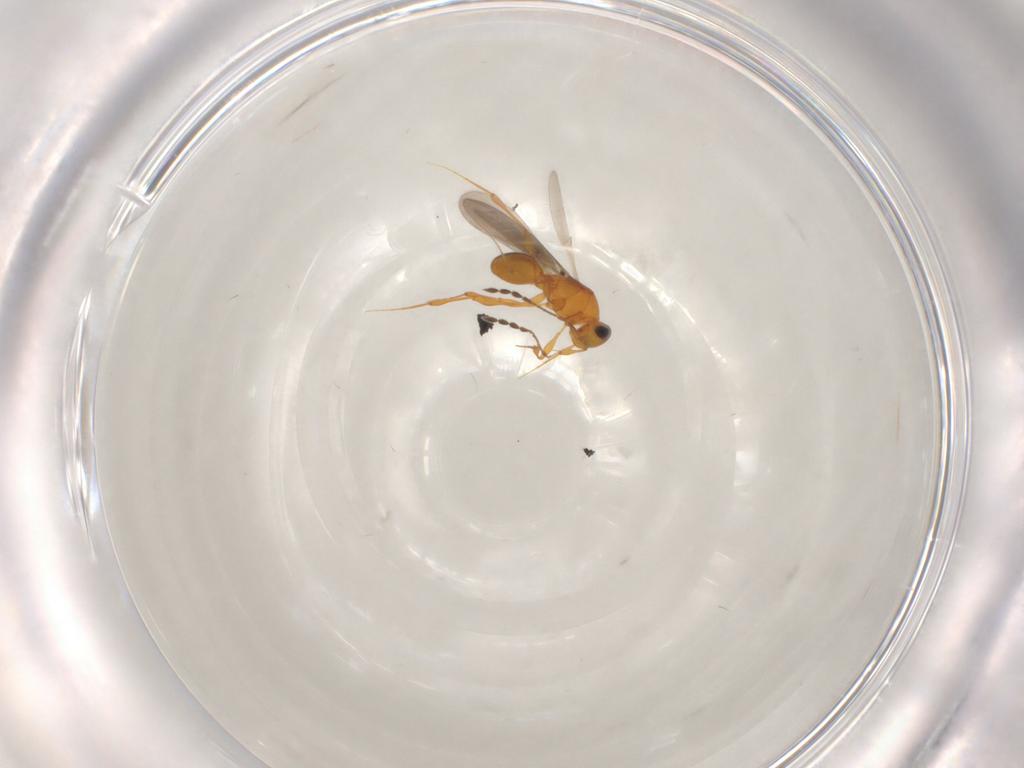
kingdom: Animalia
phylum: Arthropoda
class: Insecta
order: Hymenoptera
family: Platygastridae
